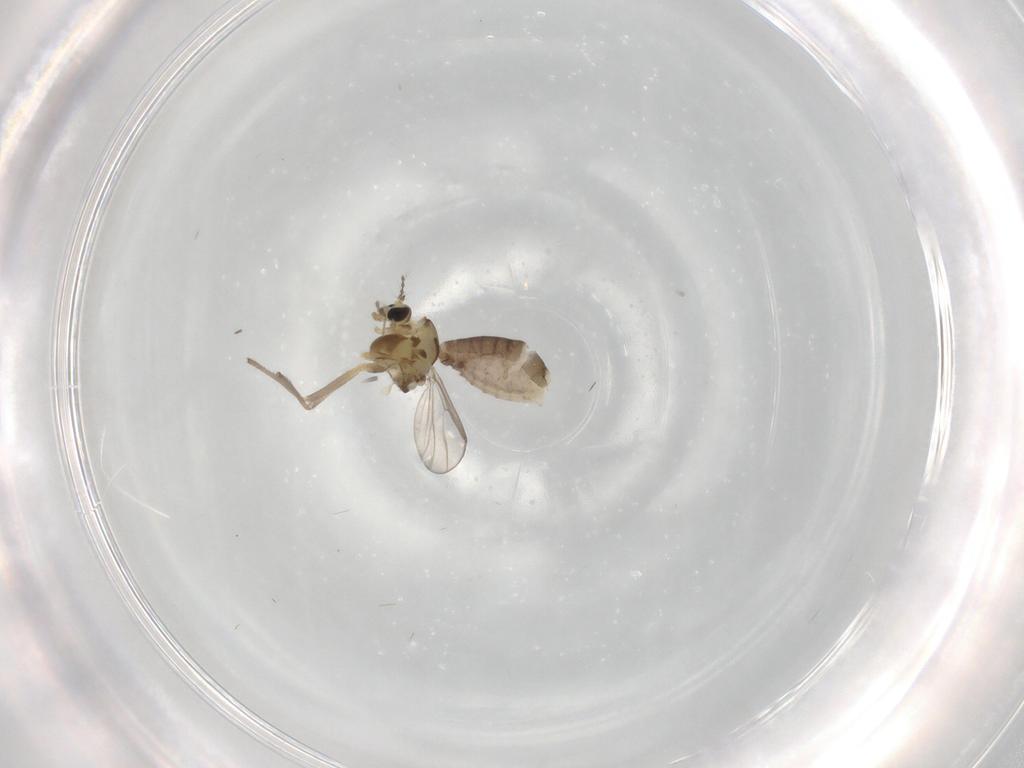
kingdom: Animalia
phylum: Arthropoda
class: Insecta
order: Diptera
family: Chironomidae
